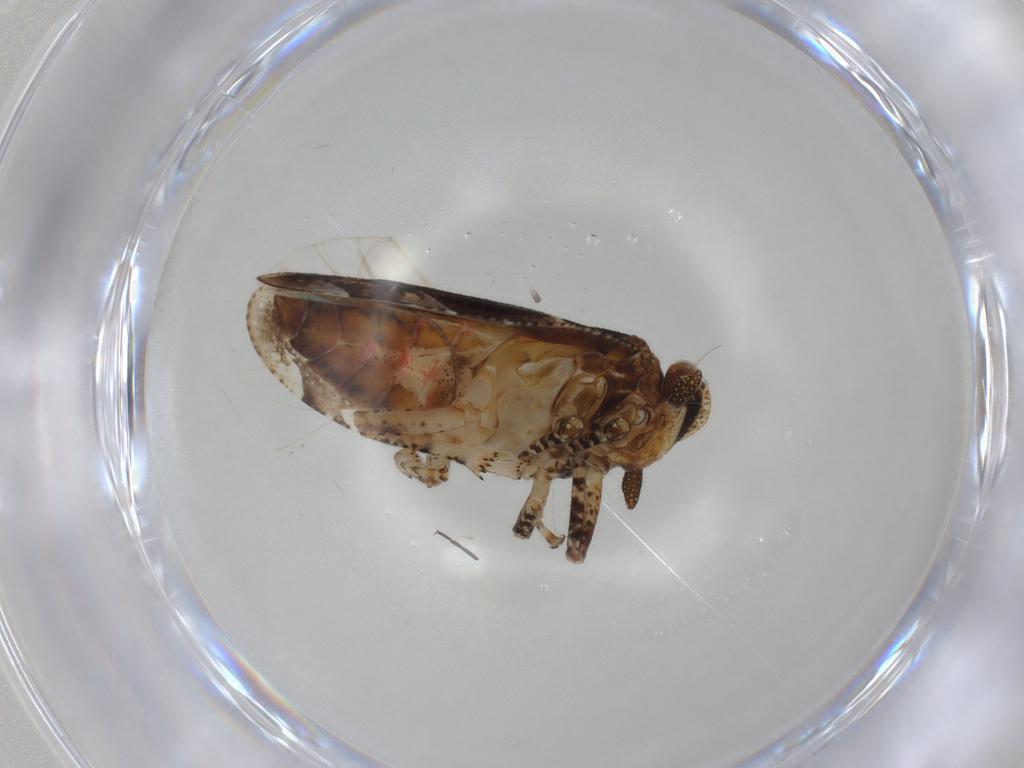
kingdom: Animalia
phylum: Arthropoda
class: Insecta
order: Hemiptera
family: Tettigometridae
